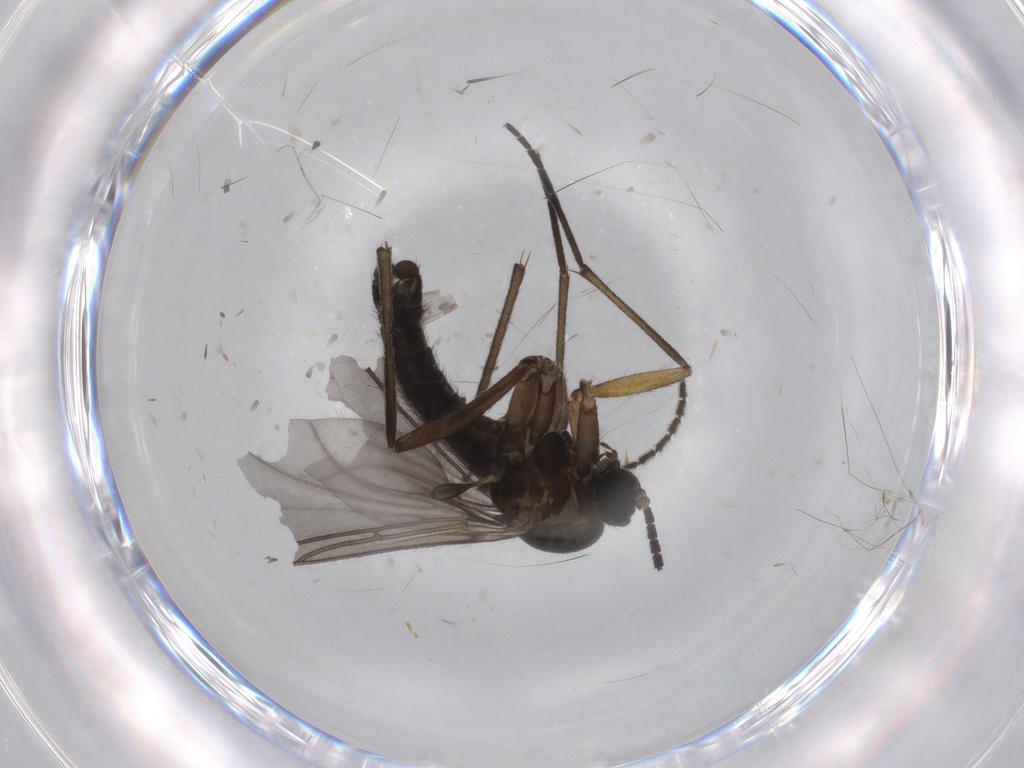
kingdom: Animalia
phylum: Arthropoda
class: Insecta
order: Diptera
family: Sciaridae
